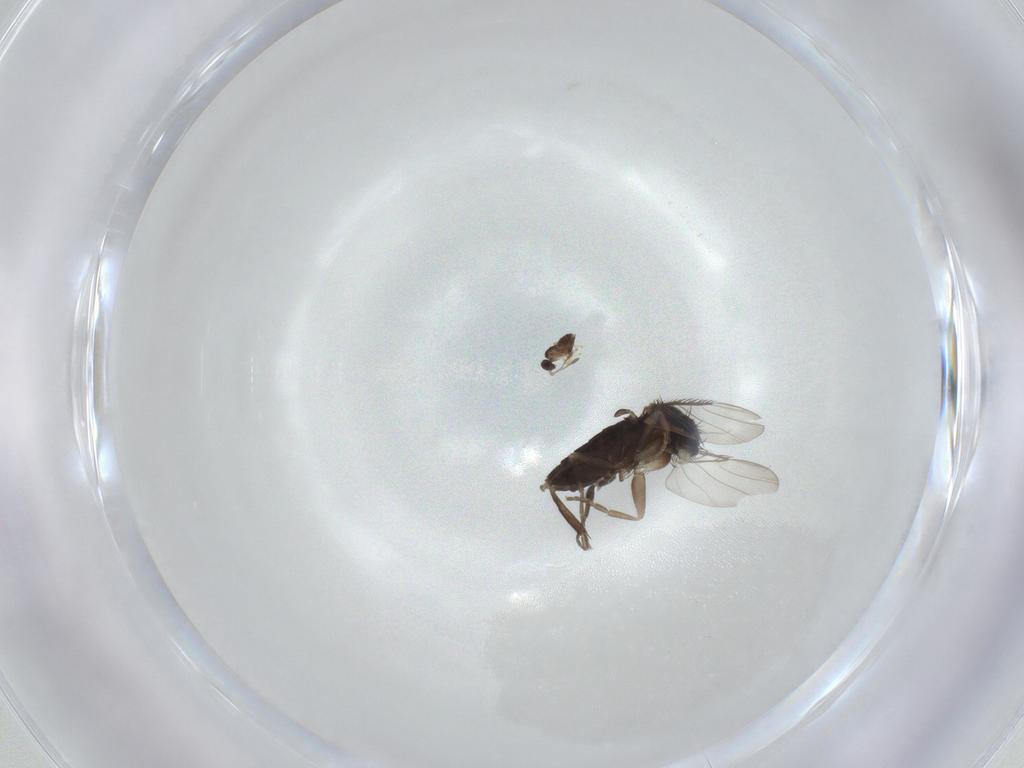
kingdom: Animalia
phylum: Arthropoda
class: Insecta
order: Diptera
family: Phoridae
